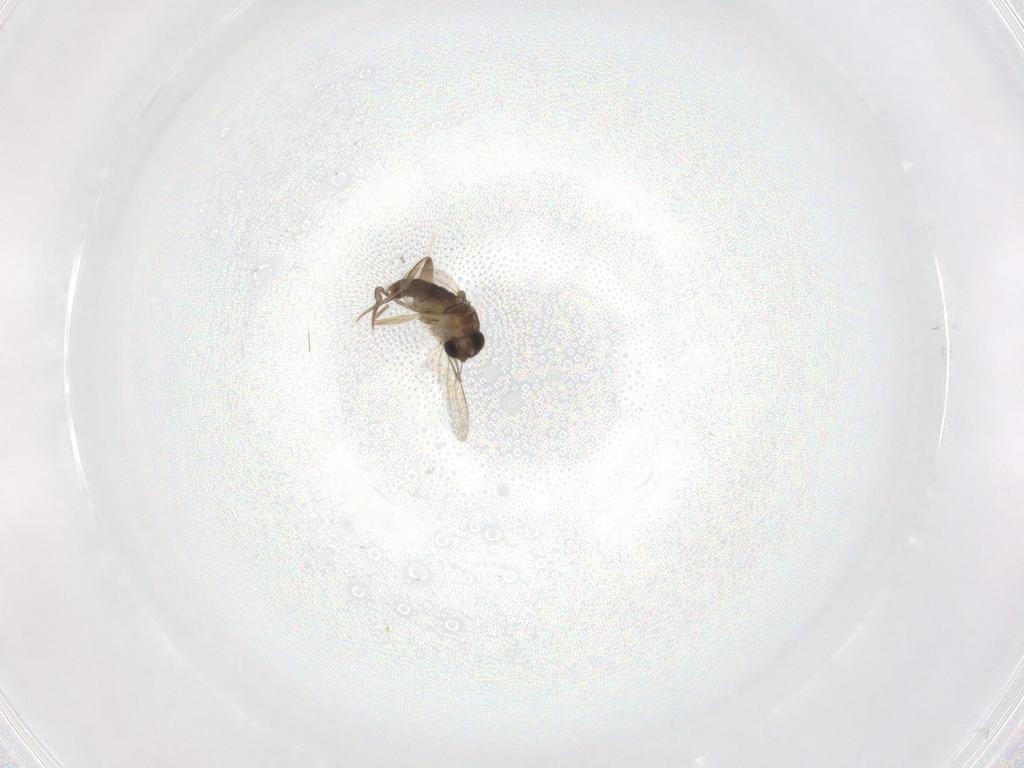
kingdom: Animalia
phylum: Arthropoda
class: Insecta
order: Diptera
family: Phoridae
